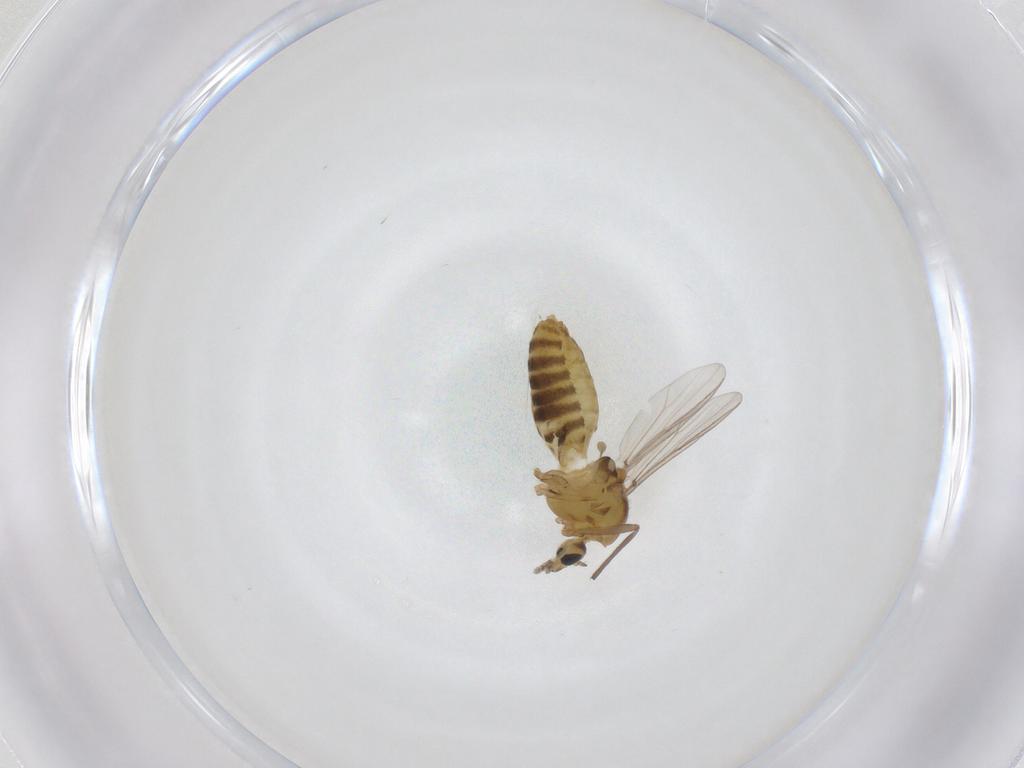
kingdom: Animalia
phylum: Arthropoda
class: Insecta
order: Diptera
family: Chironomidae
